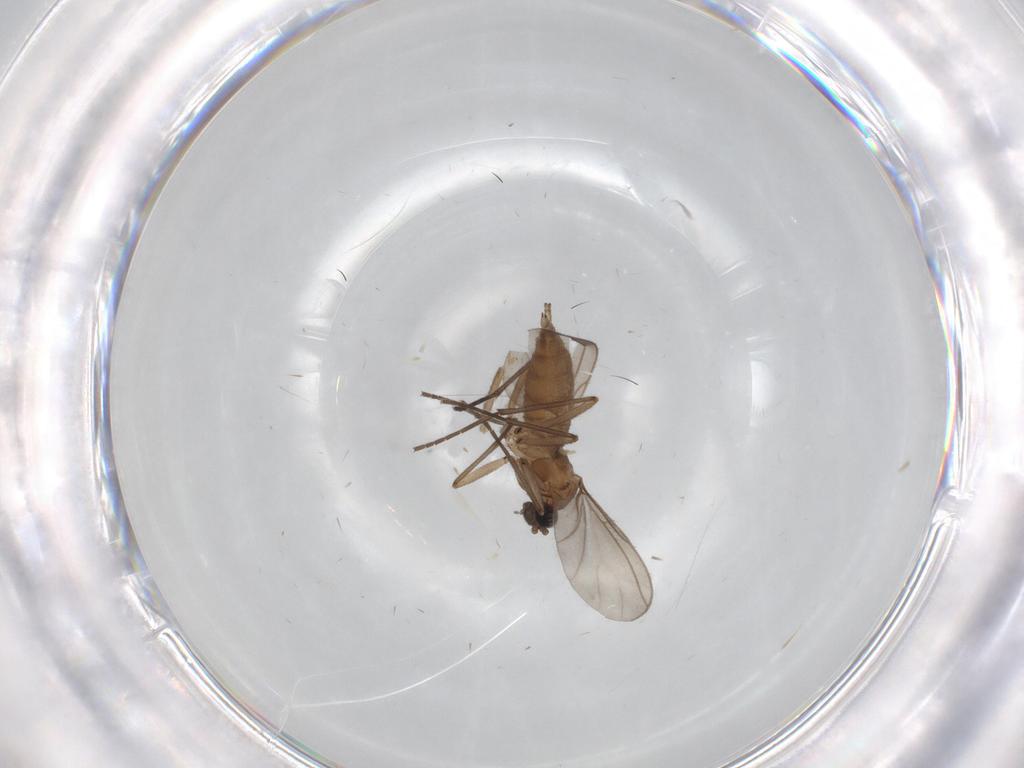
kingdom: Animalia
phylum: Arthropoda
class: Insecta
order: Diptera
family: Sciaridae
